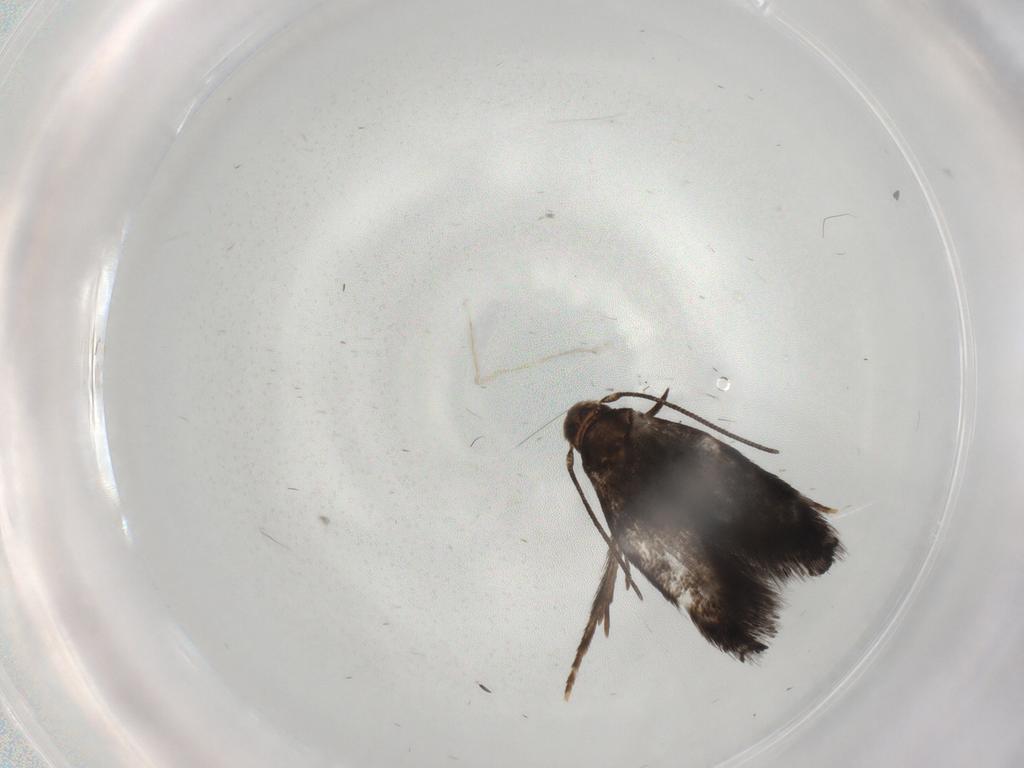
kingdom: Animalia
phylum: Arthropoda
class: Insecta
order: Lepidoptera
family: Gelechiidae
